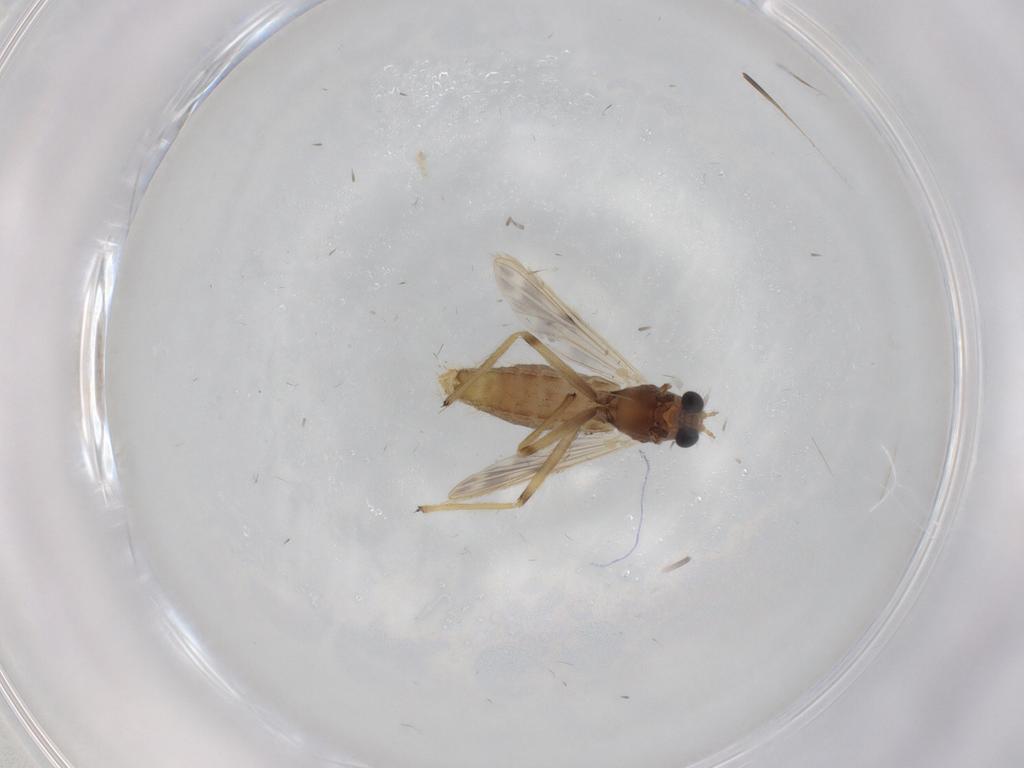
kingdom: Animalia
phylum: Arthropoda
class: Insecta
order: Diptera
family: Chironomidae
